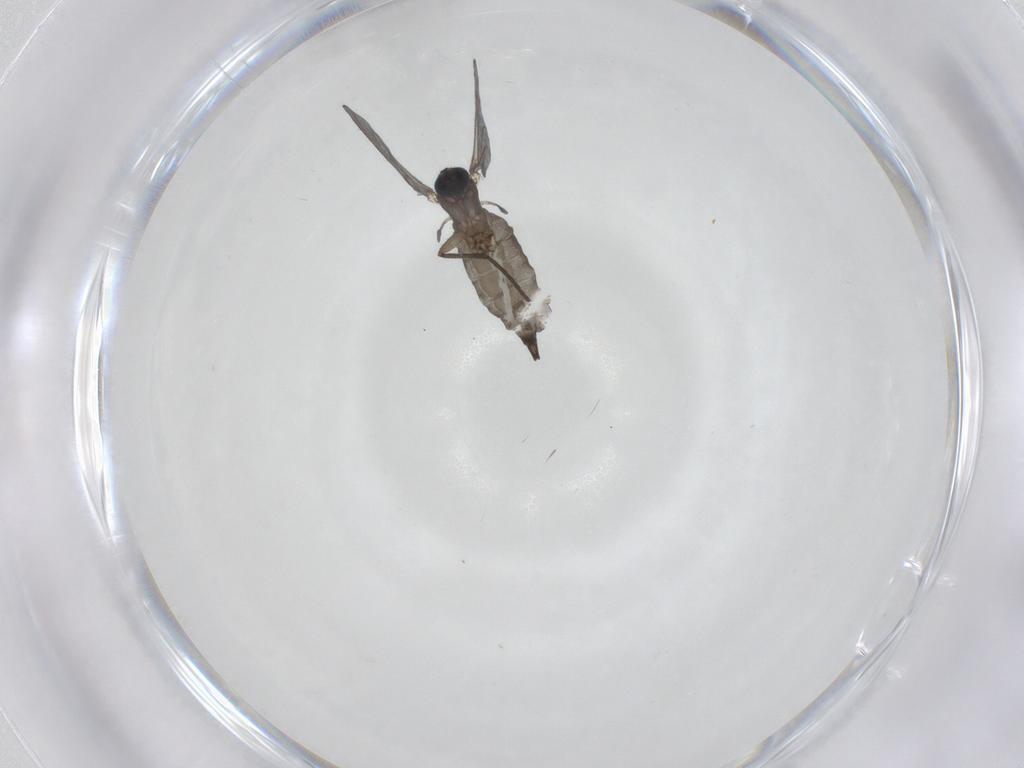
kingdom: Animalia
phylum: Arthropoda
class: Insecta
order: Diptera
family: Sciaridae
